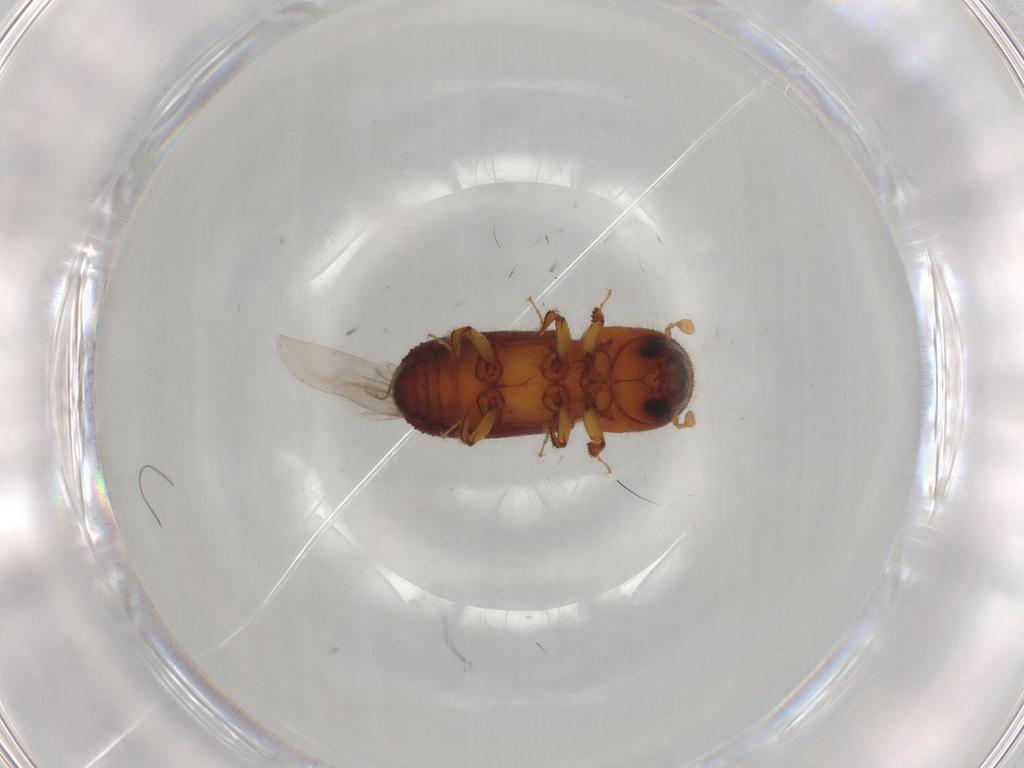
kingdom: Animalia
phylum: Arthropoda
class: Insecta
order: Coleoptera
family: Curculionidae
